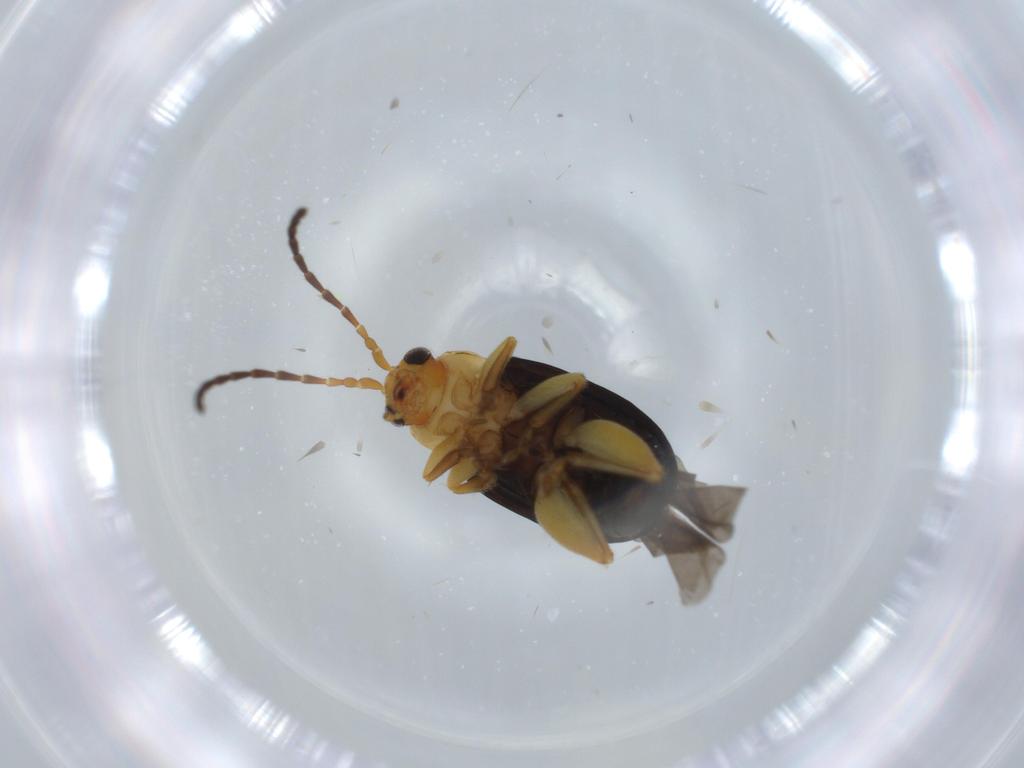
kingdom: Animalia
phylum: Arthropoda
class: Insecta
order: Coleoptera
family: Chrysomelidae
